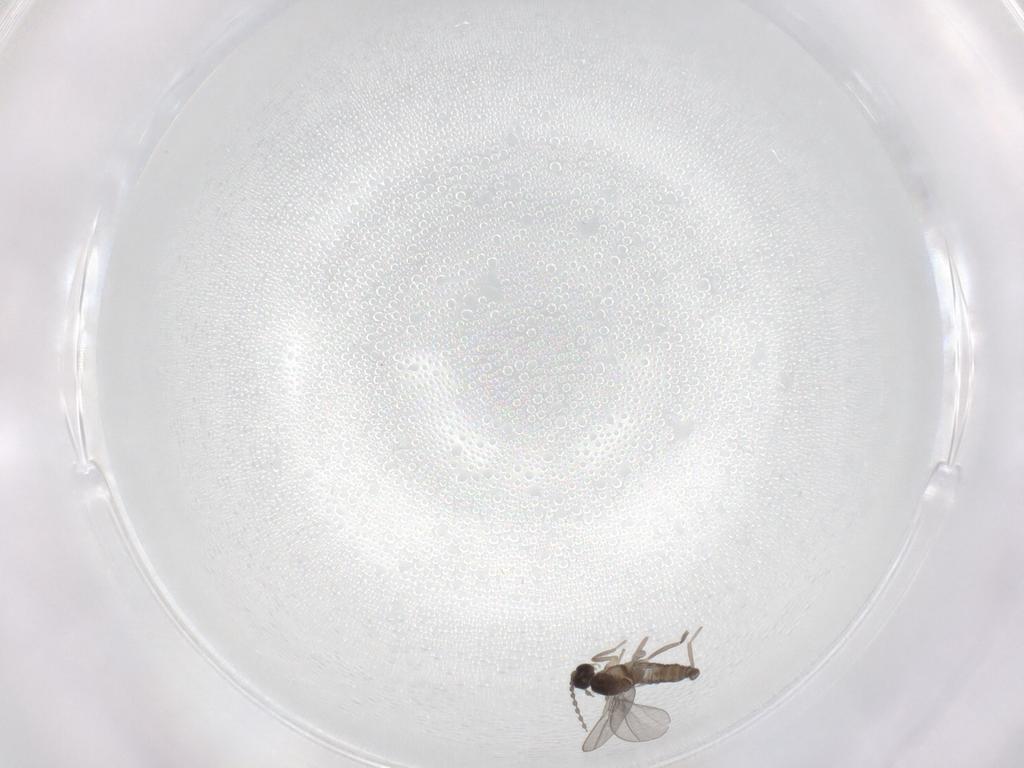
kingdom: Animalia
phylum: Arthropoda
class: Insecta
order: Diptera
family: Cecidomyiidae
